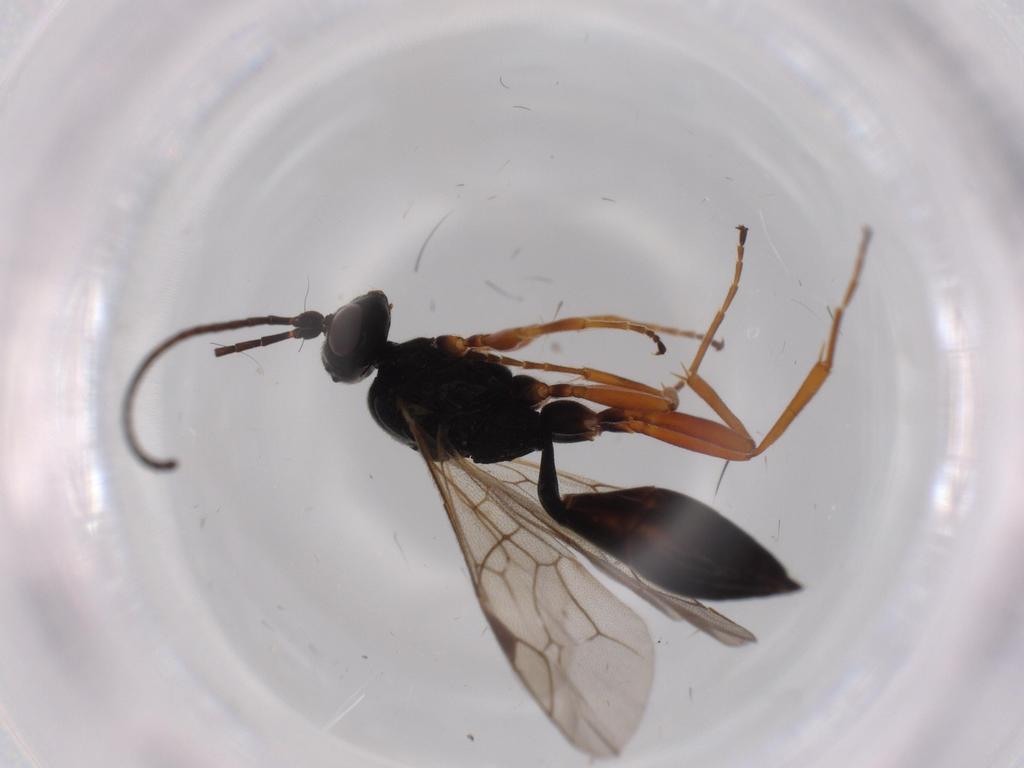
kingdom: Animalia
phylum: Arthropoda
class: Insecta
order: Hymenoptera
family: Ichneumonidae
